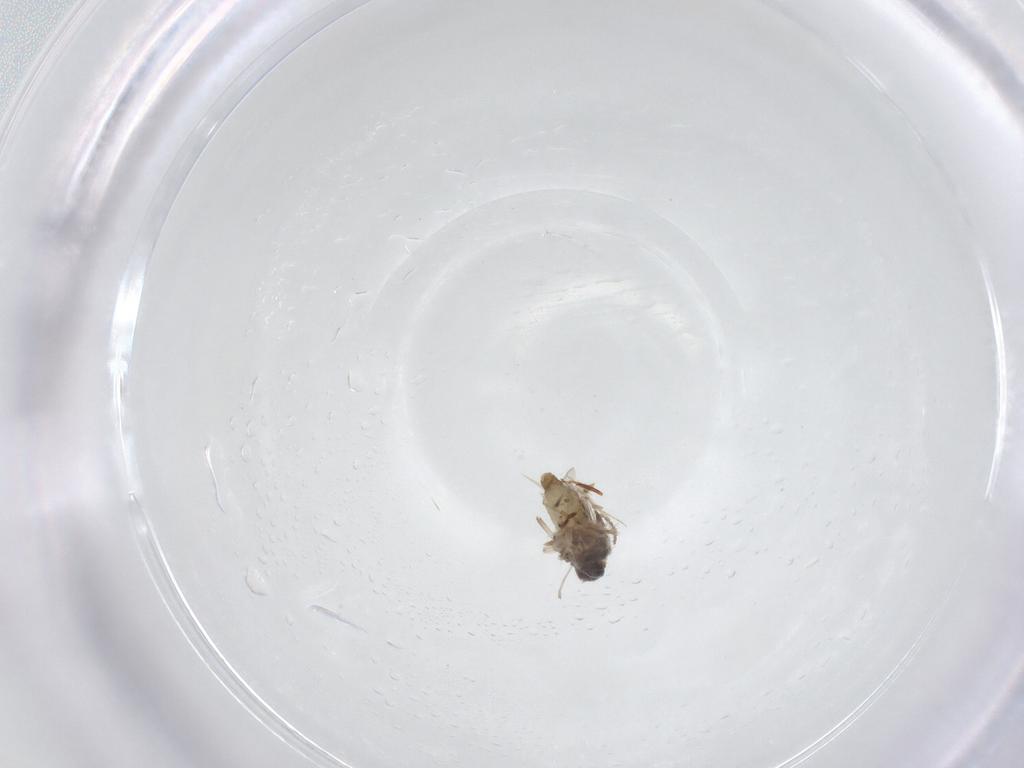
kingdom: Animalia
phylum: Arthropoda
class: Insecta
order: Diptera
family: Chironomidae
